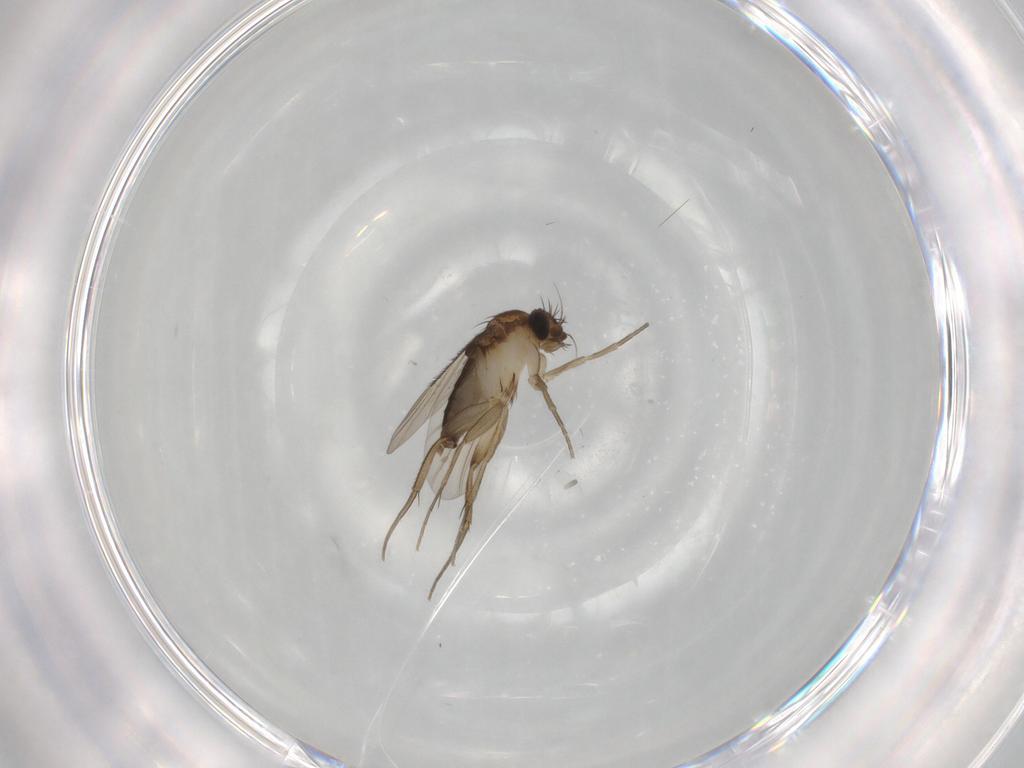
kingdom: Animalia
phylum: Arthropoda
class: Insecta
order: Diptera
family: Phoridae
